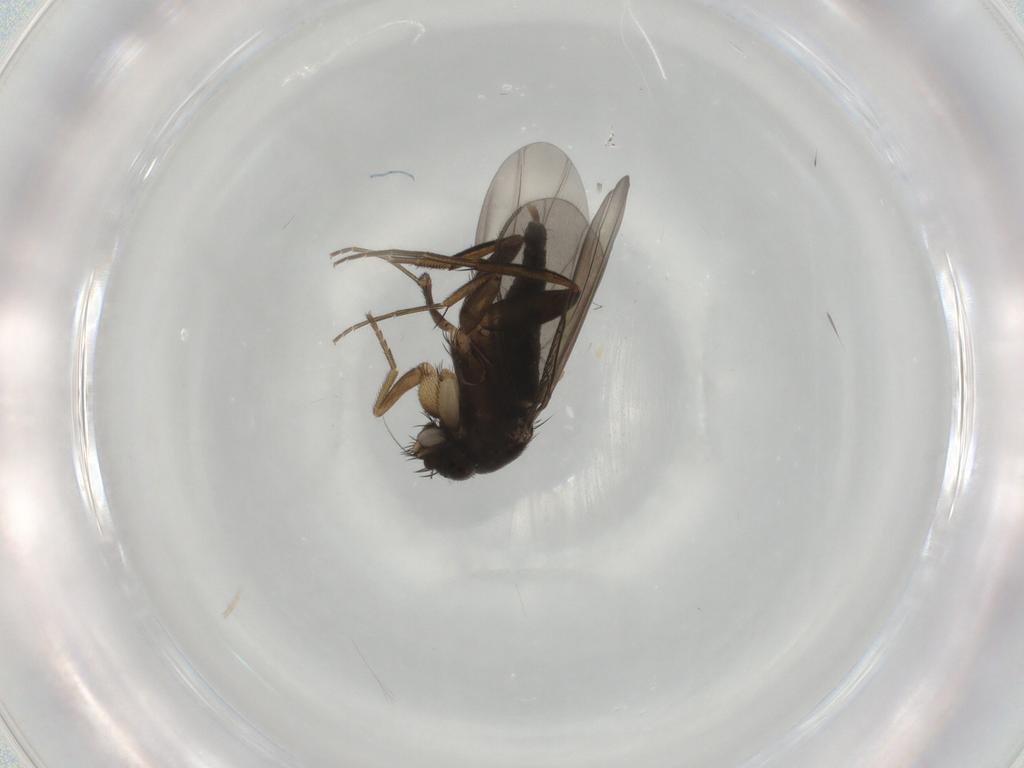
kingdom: Animalia
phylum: Arthropoda
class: Insecta
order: Diptera
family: Phoridae
